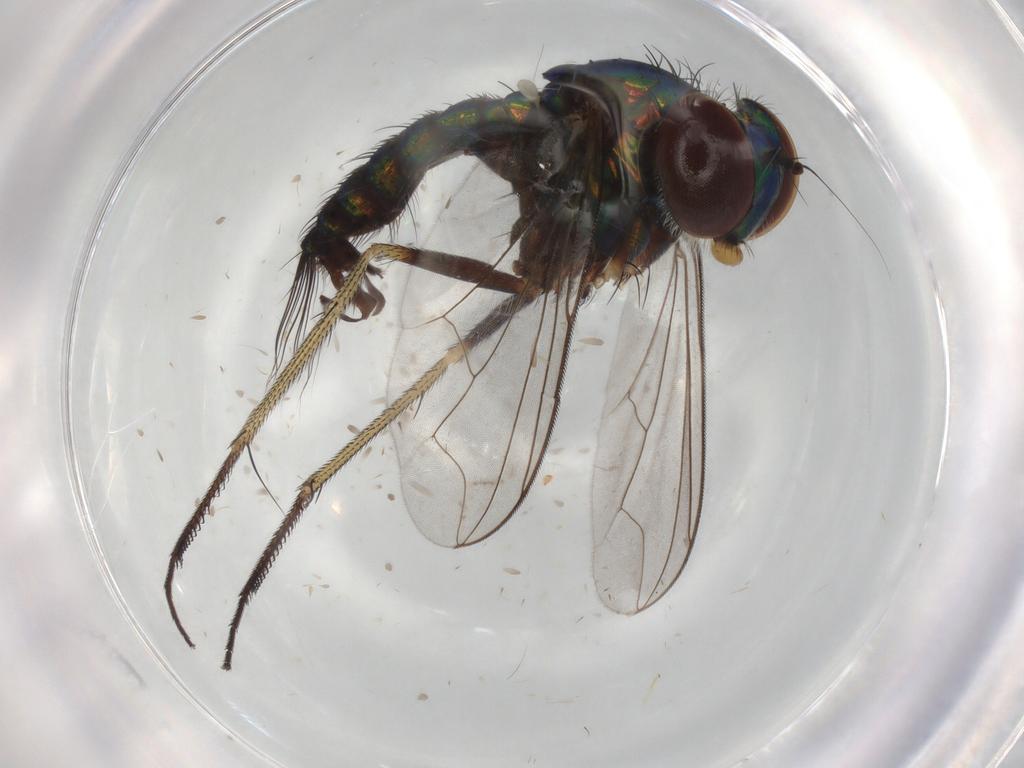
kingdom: Animalia
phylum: Arthropoda
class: Insecta
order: Diptera
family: Dolichopodidae
